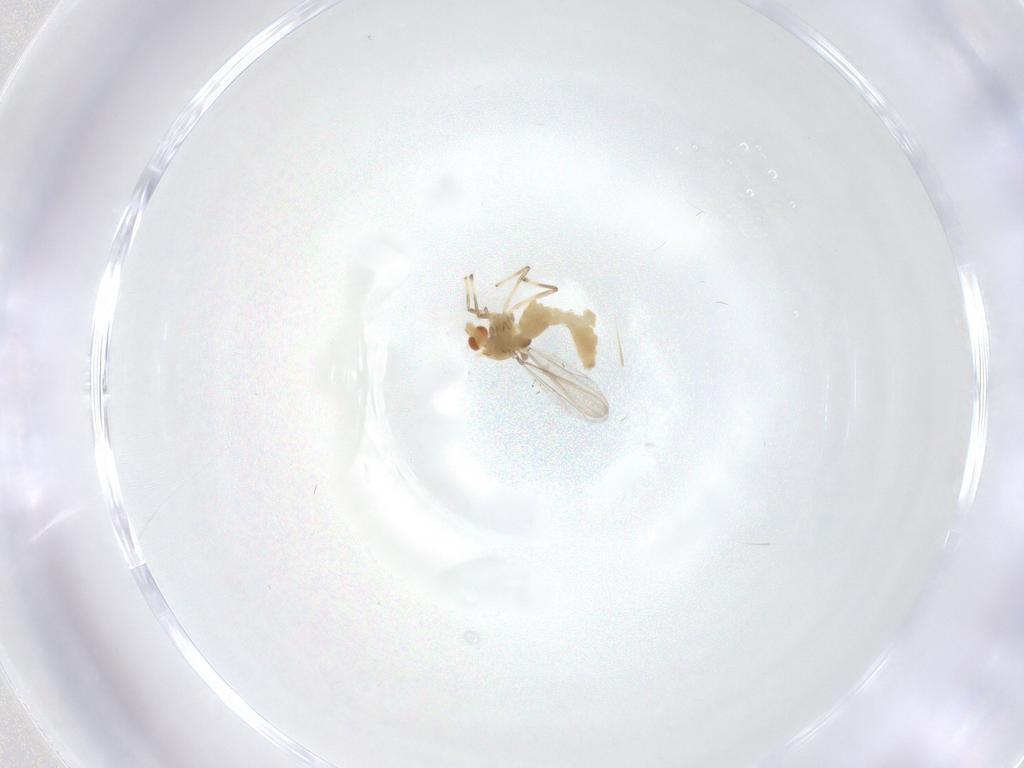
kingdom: Animalia
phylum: Arthropoda
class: Insecta
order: Diptera
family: Chironomidae
